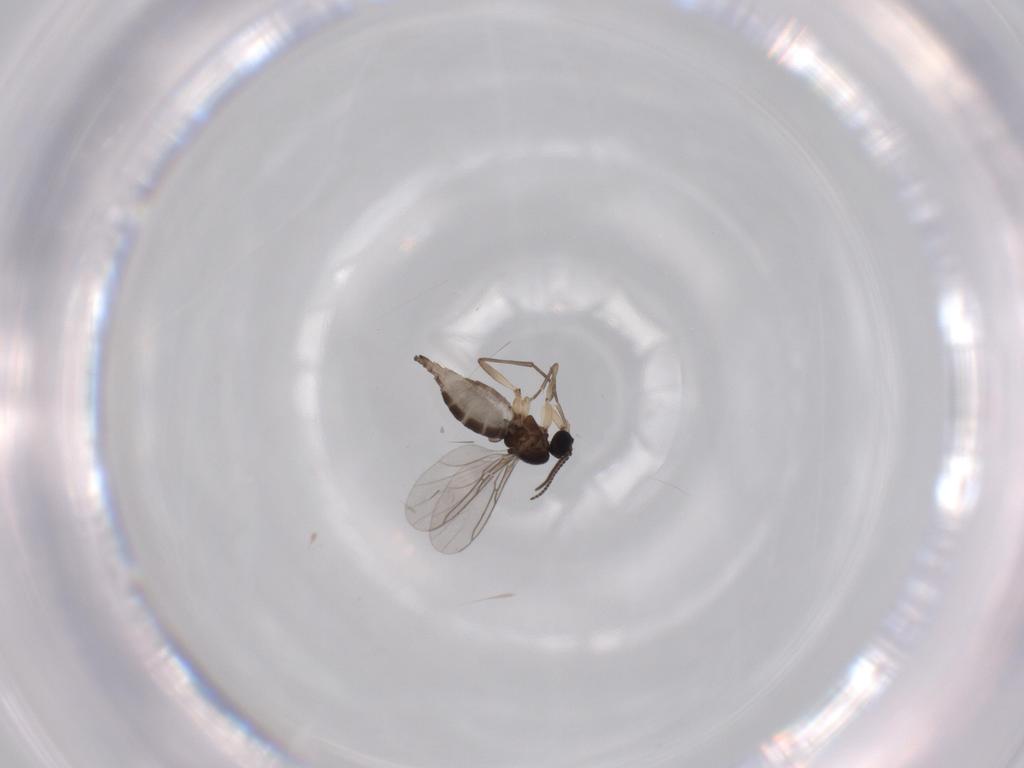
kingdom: Animalia
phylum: Arthropoda
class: Insecta
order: Diptera
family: Sciaridae
